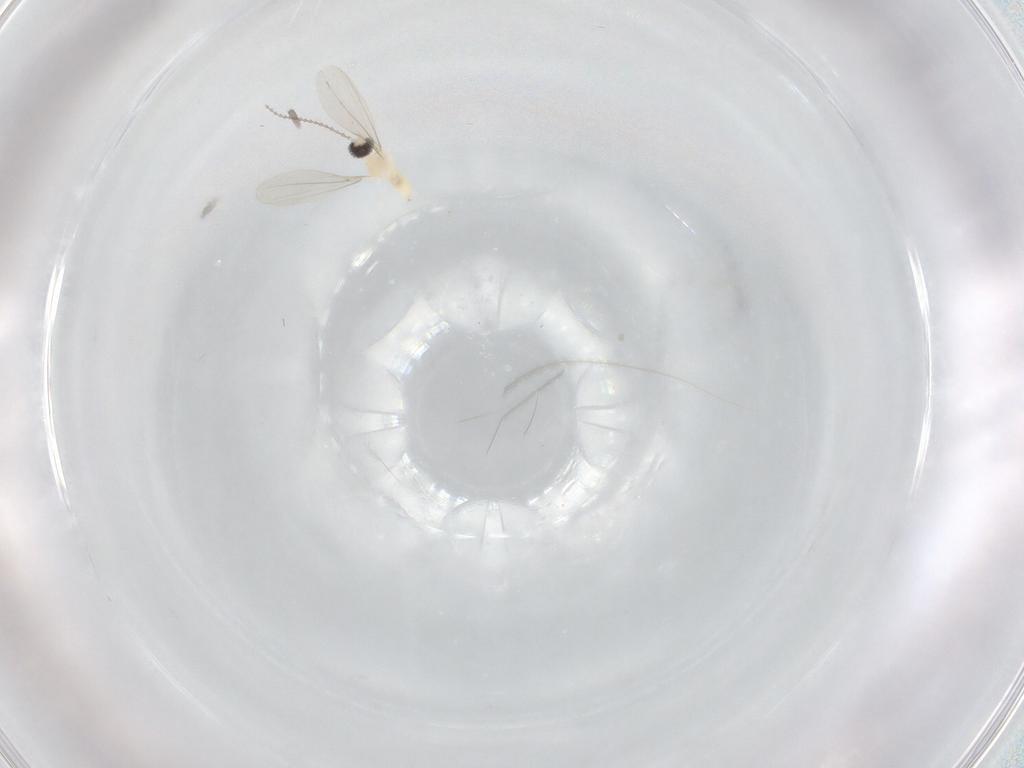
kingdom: Animalia
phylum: Arthropoda
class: Insecta
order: Diptera
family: Cecidomyiidae
